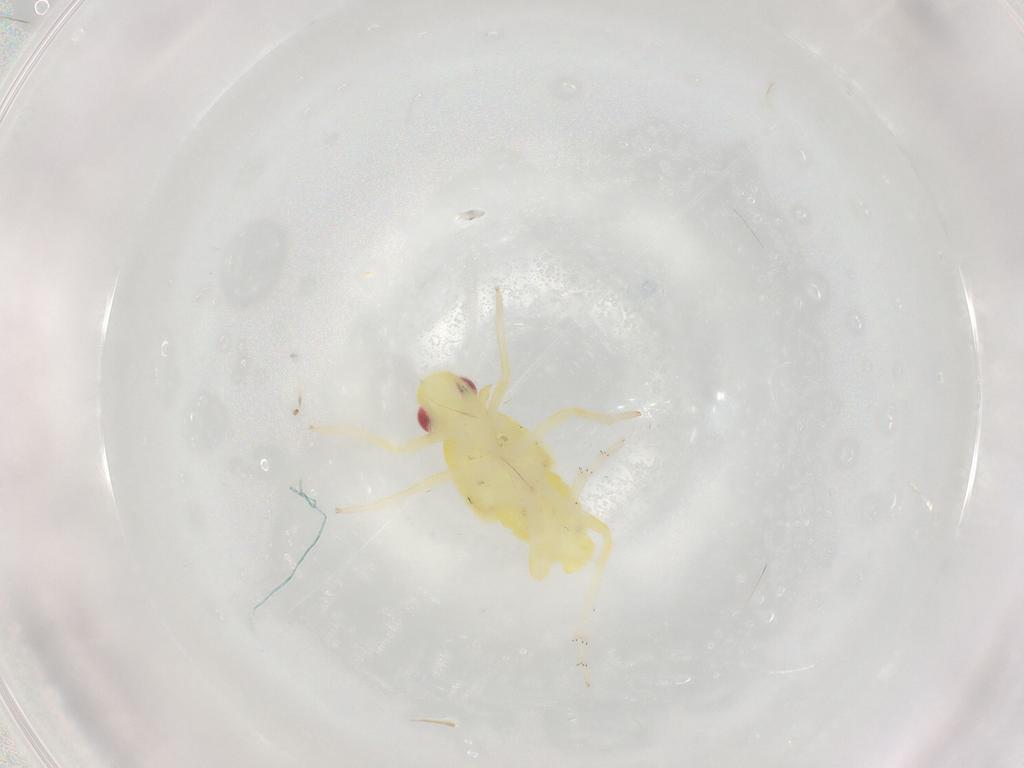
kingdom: Animalia
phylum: Arthropoda
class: Insecta
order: Hemiptera
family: Tropiduchidae
